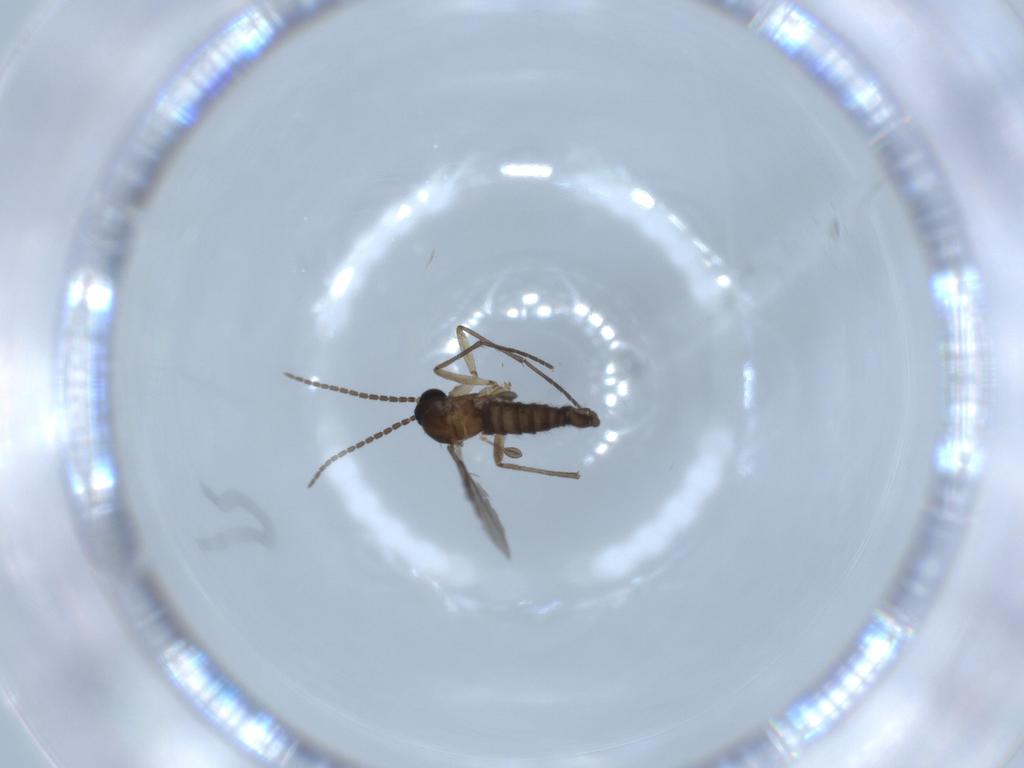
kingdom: Animalia
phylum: Arthropoda
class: Insecta
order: Diptera
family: Sciaridae
